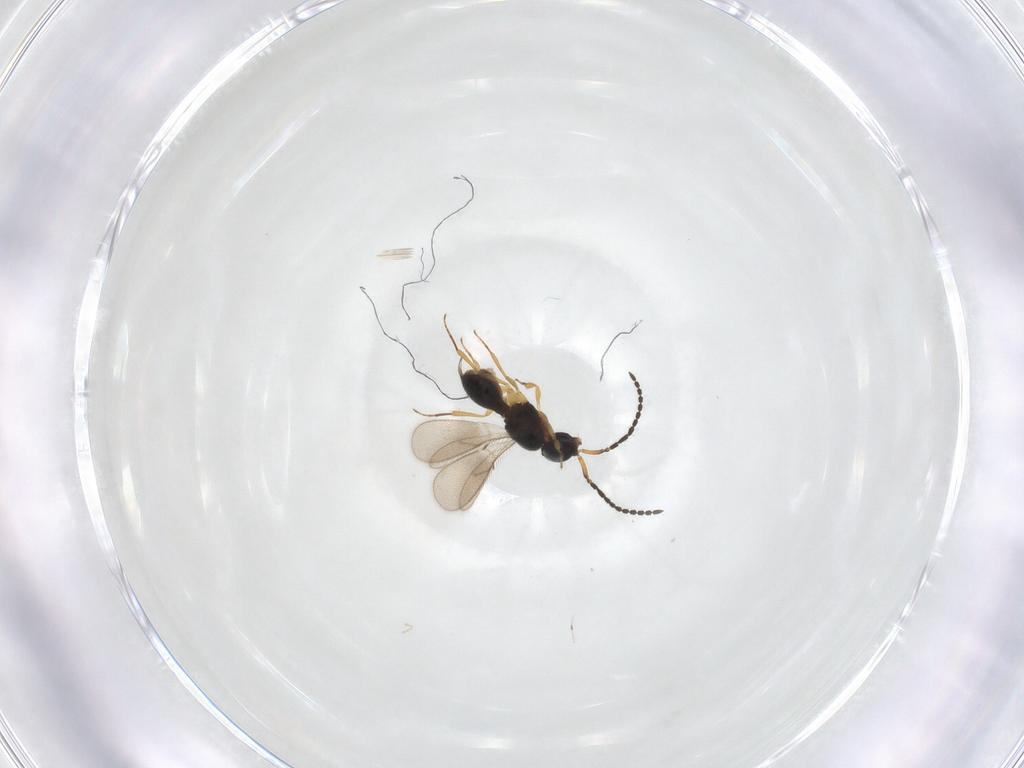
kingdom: Animalia
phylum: Arthropoda
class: Insecta
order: Hymenoptera
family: Scelionidae
